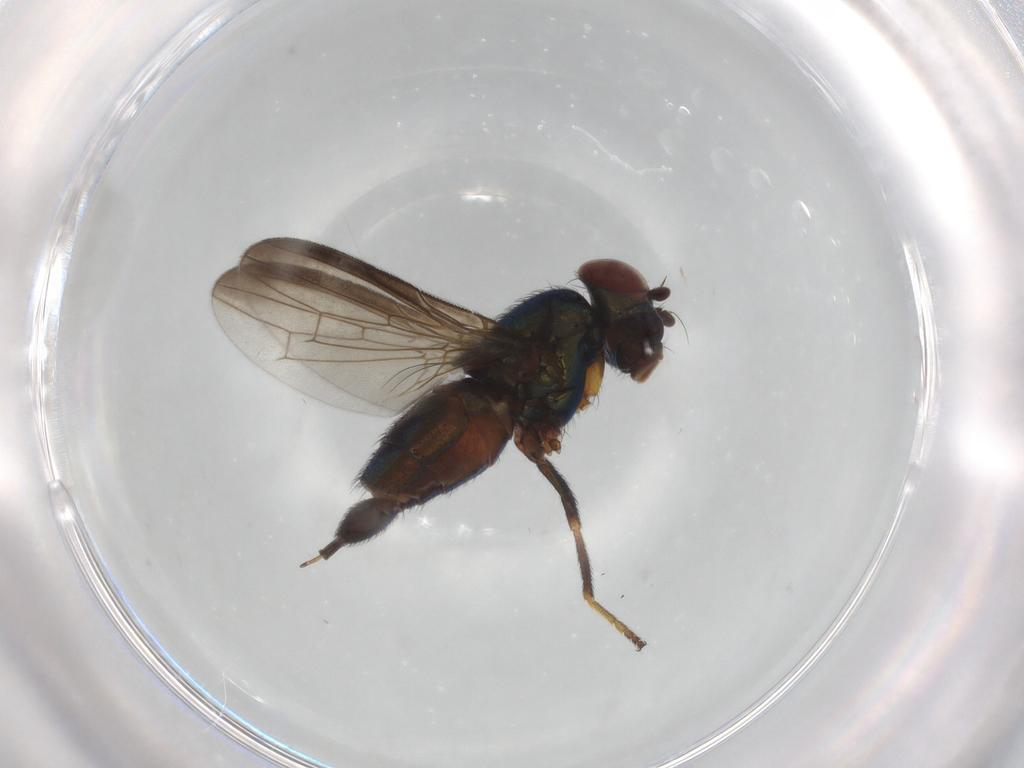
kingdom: Animalia
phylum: Arthropoda
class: Insecta
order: Diptera
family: Ulidiidae
